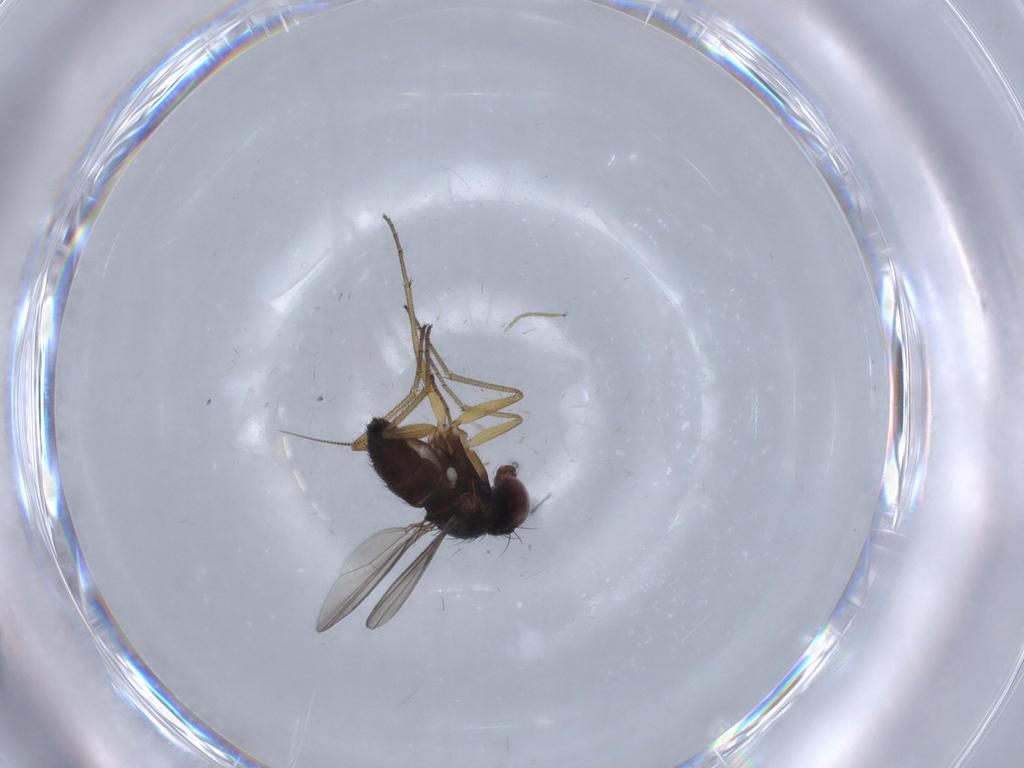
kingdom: Animalia
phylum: Arthropoda
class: Insecta
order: Diptera
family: Dolichopodidae
